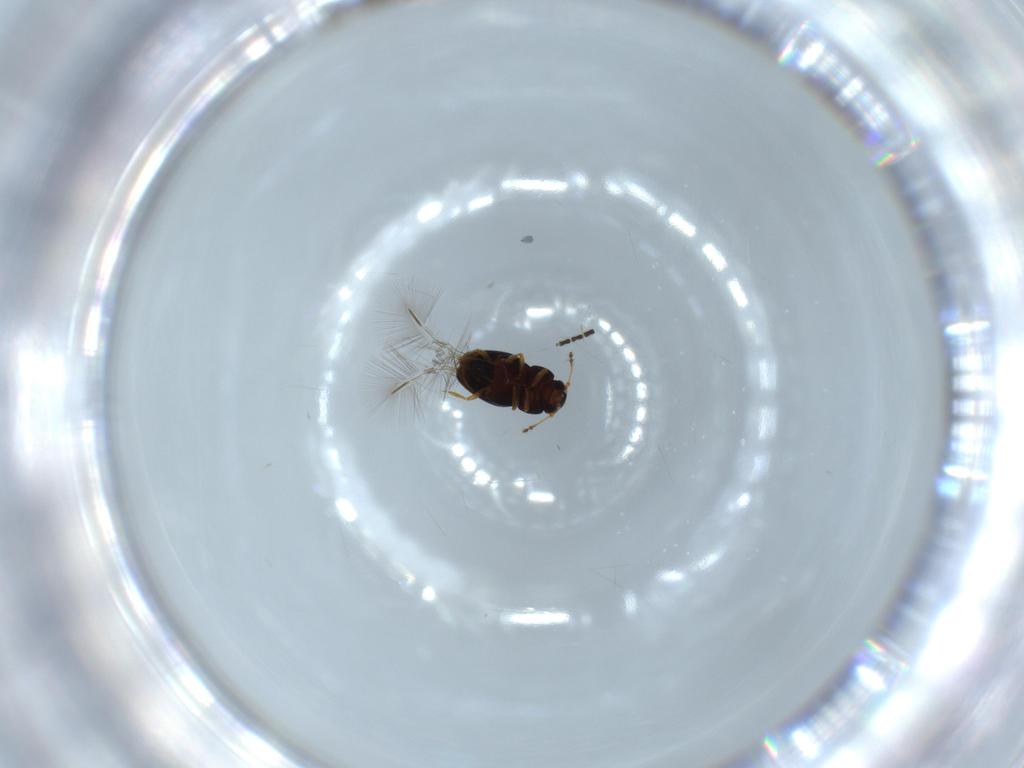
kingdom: Animalia
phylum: Arthropoda
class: Insecta
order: Coleoptera
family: Ptiliidae
